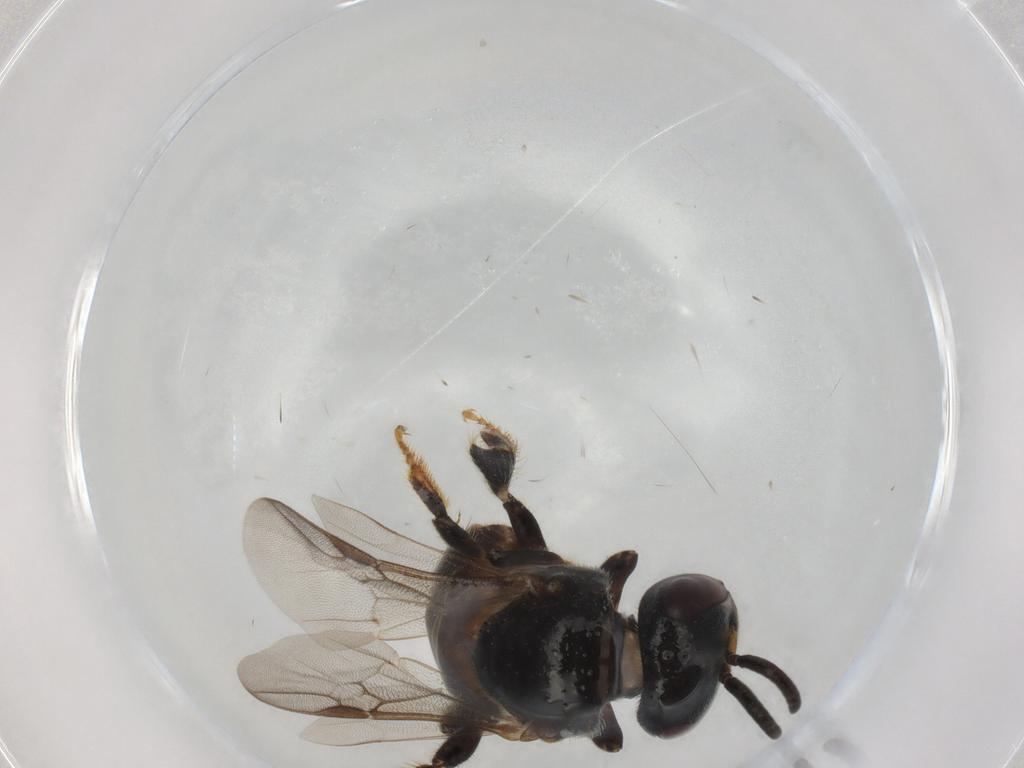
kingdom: Animalia
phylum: Arthropoda
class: Insecta
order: Hymenoptera
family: Apidae
